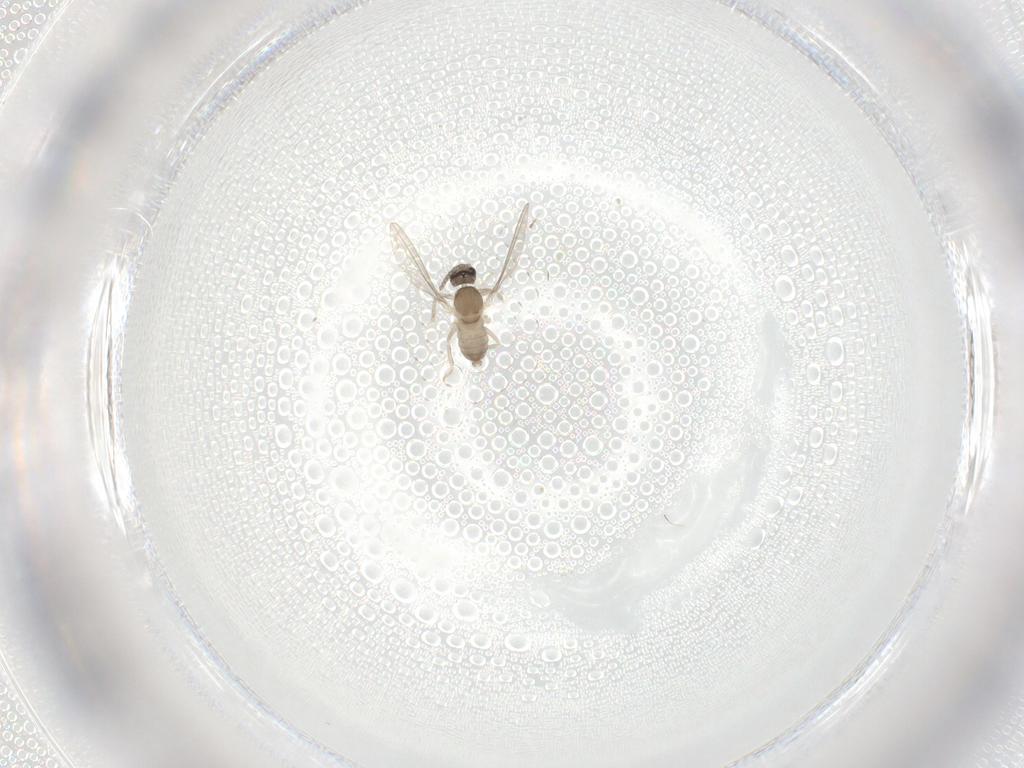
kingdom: Animalia
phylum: Arthropoda
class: Insecta
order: Diptera
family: Cecidomyiidae
